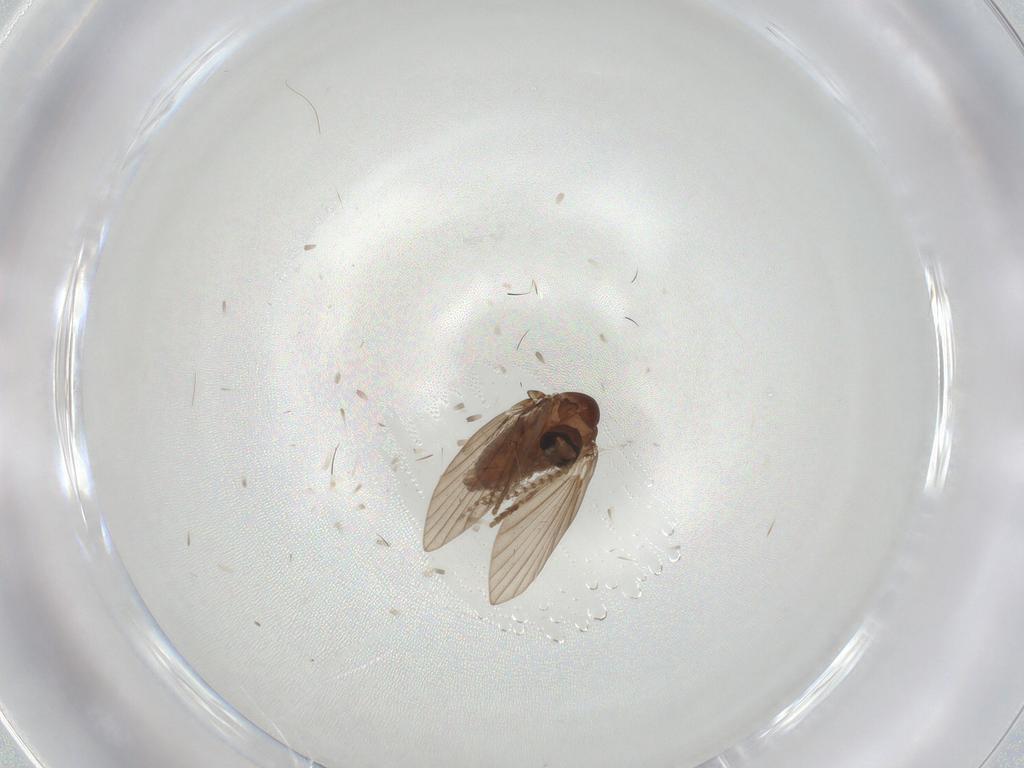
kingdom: Animalia
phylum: Arthropoda
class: Insecta
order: Diptera
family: Psychodidae
